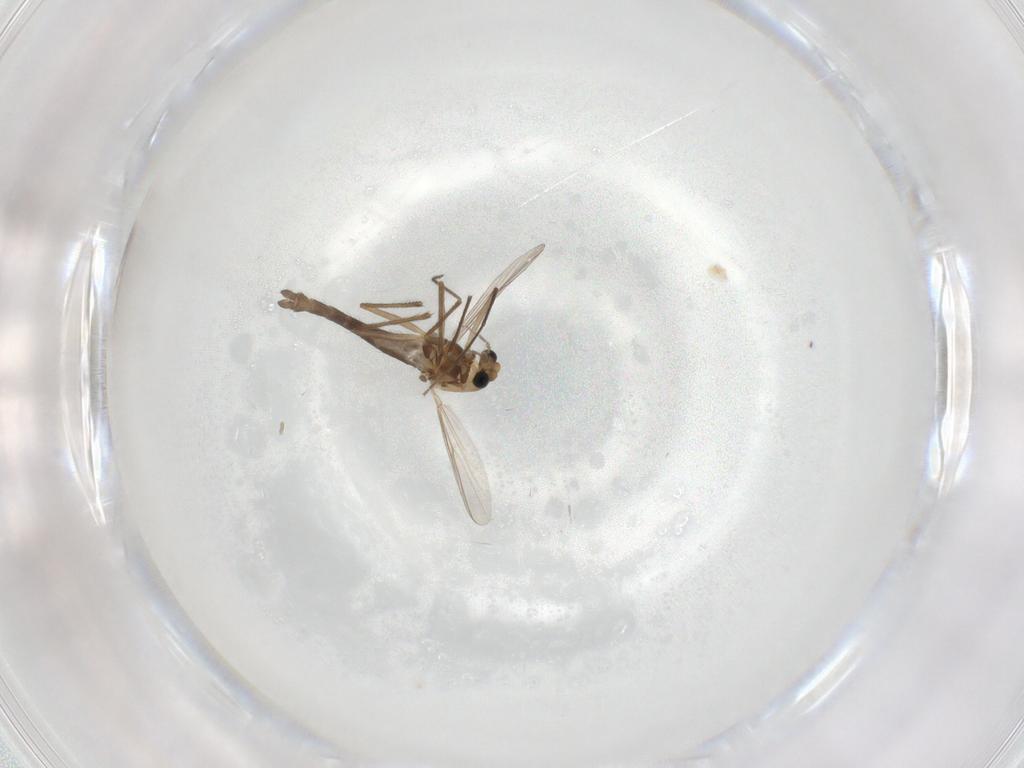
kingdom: Animalia
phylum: Arthropoda
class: Insecta
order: Diptera
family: Chironomidae
